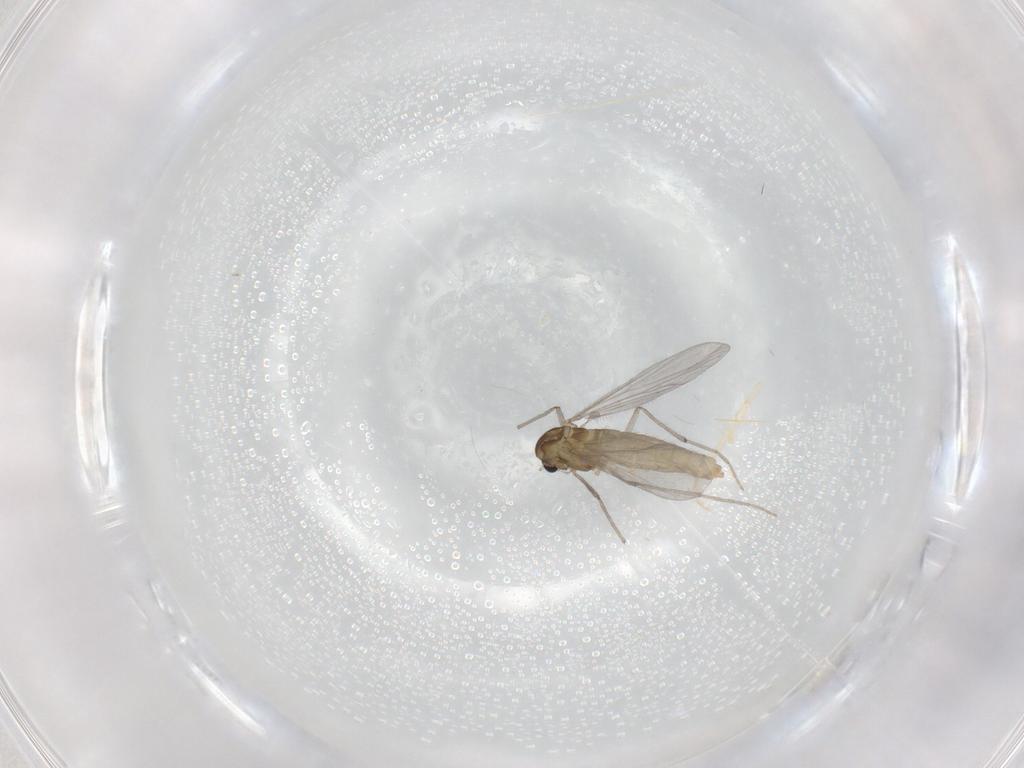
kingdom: Animalia
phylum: Arthropoda
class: Insecta
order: Diptera
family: Chironomidae
